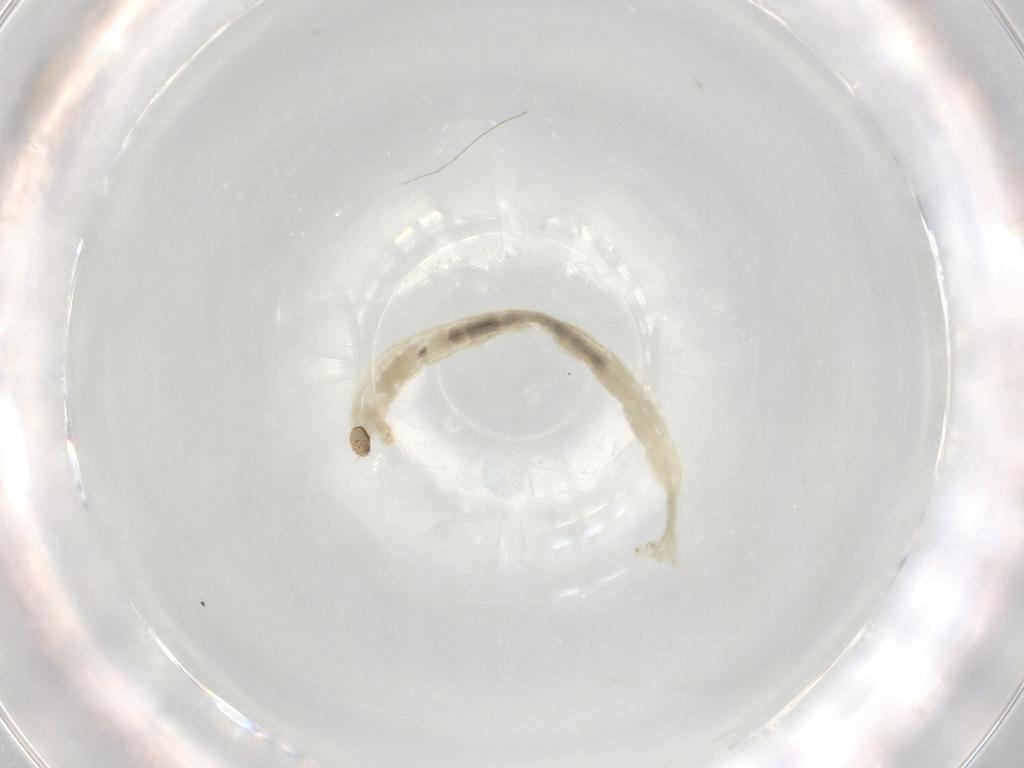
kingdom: Animalia
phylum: Arthropoda
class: Insecta
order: Diptera
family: Chironomidae
